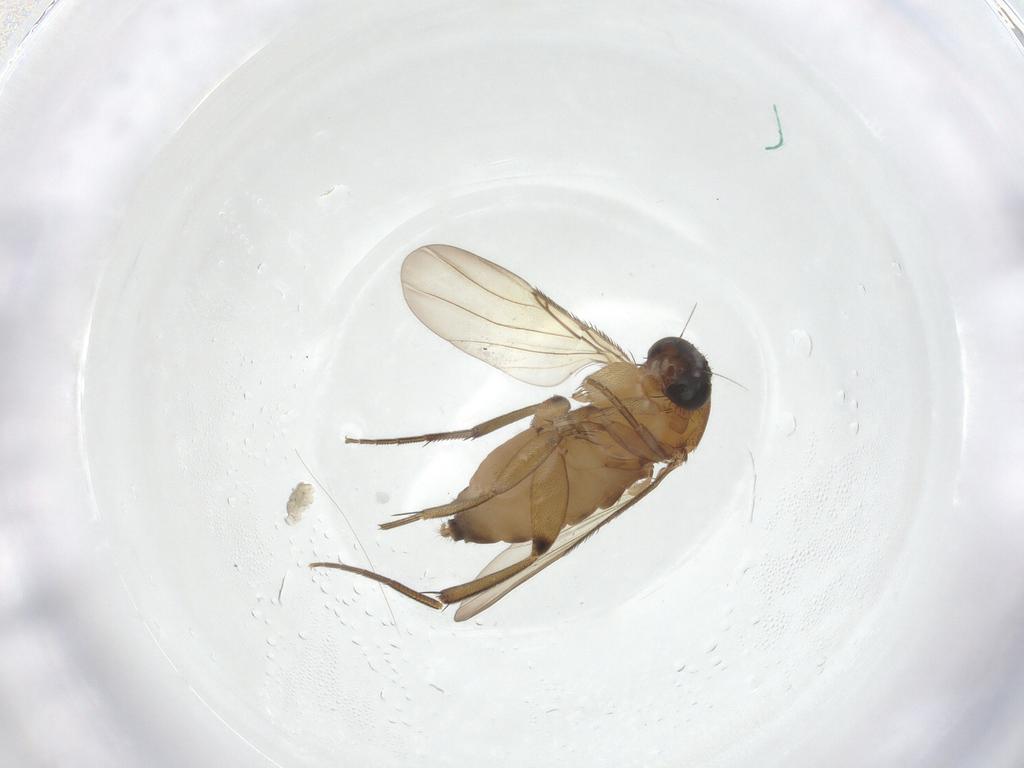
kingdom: Animalia
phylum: Arthropoda
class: Insecta
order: Diptera
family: Phoridae
